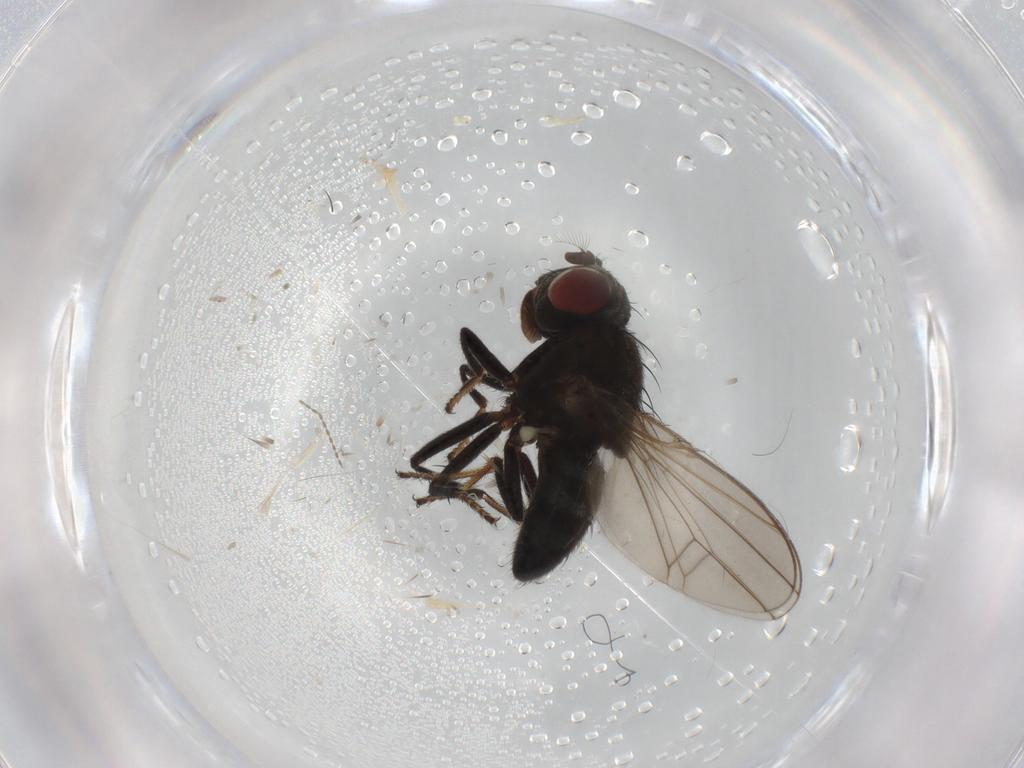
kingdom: Animalia
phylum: Arthropoda
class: Insecta
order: Diptera
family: Ephydridae
